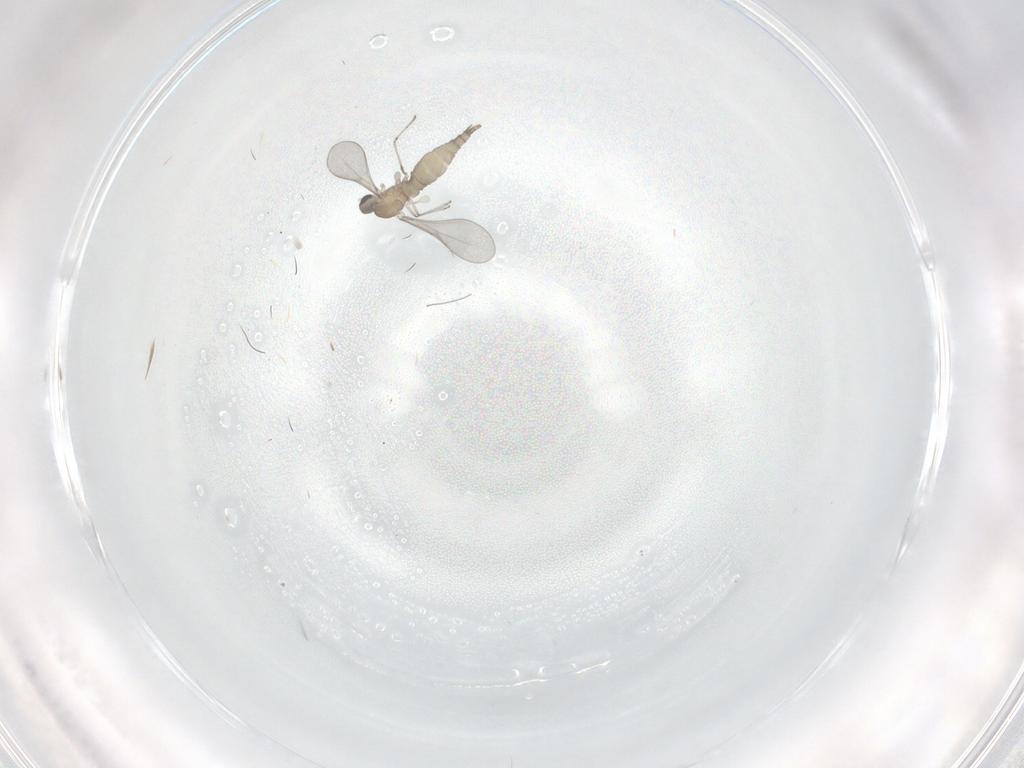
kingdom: Animalia
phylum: Arthropoda
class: Insecta
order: Diptera
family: Cecidomyiidae
